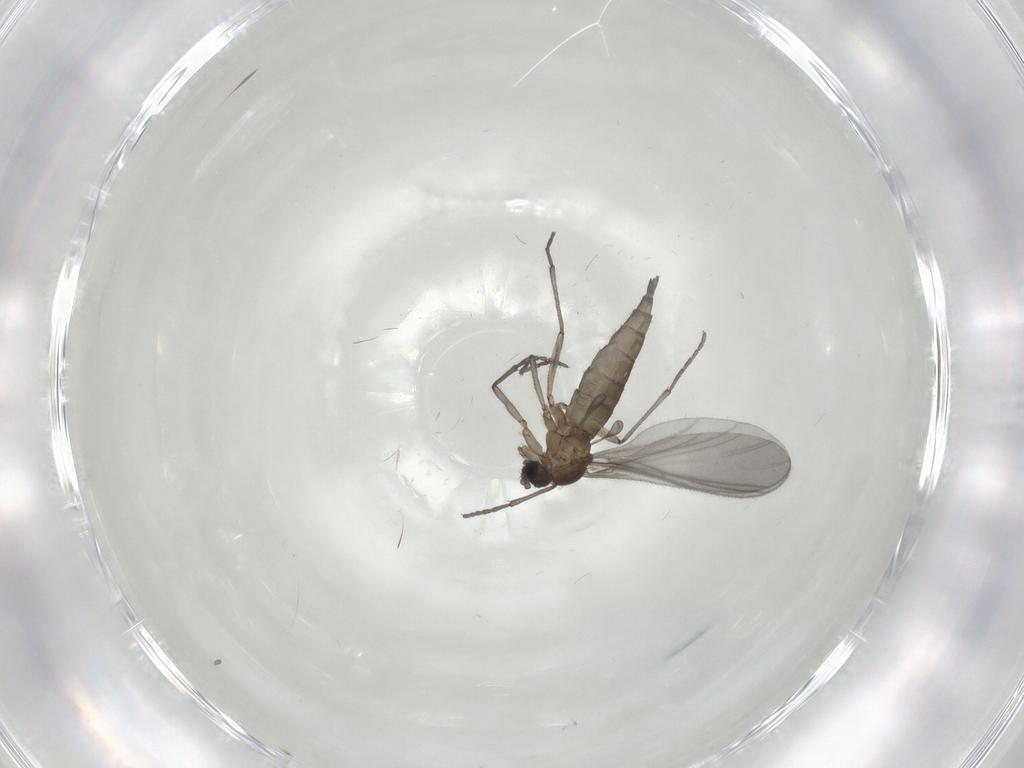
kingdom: Animalia
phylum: Arthropoda
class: Insecta
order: Diptera
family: Sciaridae
